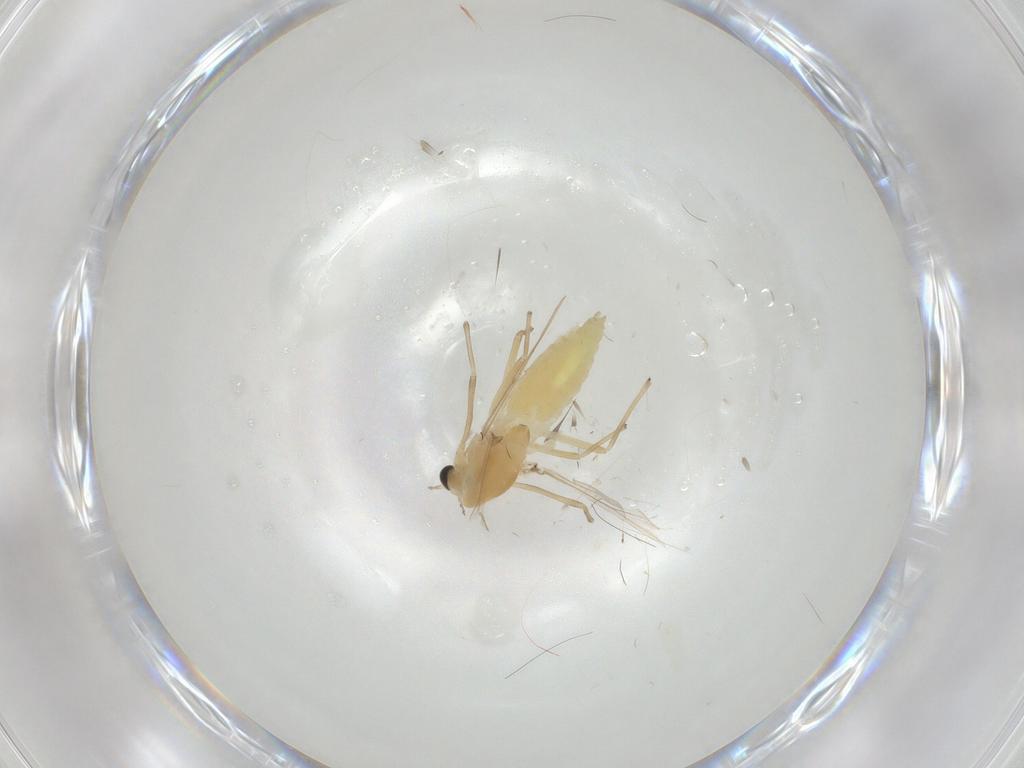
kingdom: Animalia
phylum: Arthropoda
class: Insecta
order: Diptera
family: Chironomidae
